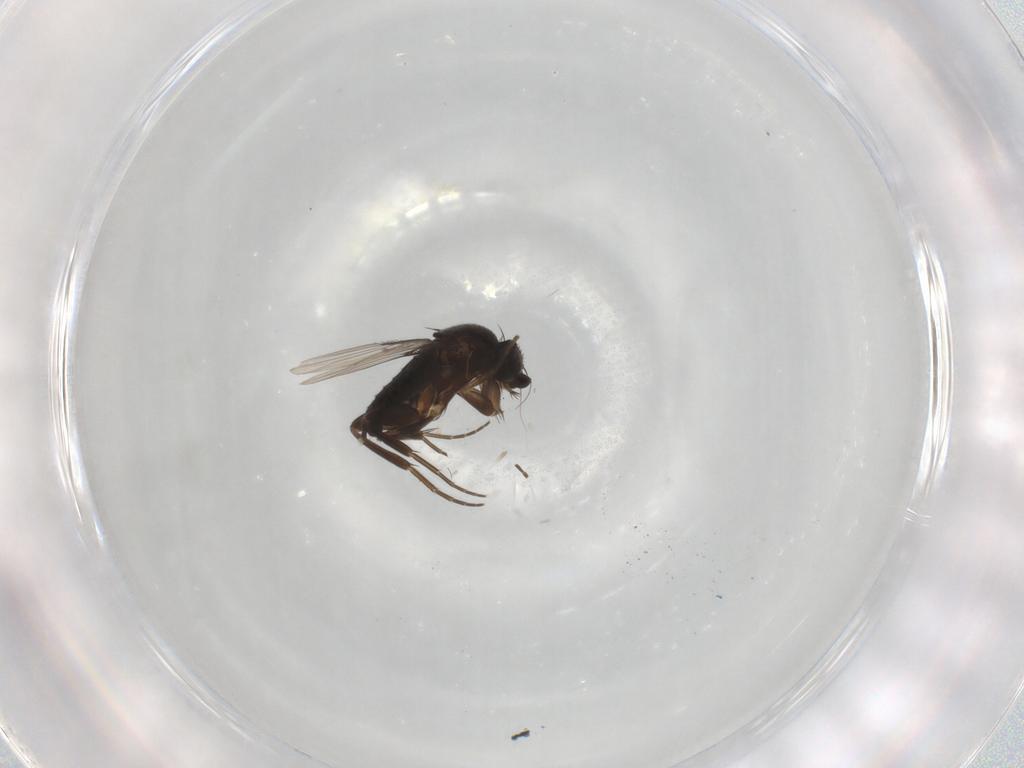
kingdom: Animalia
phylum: Arthropoda
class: Insecta
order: Diptera
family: Phoridae
